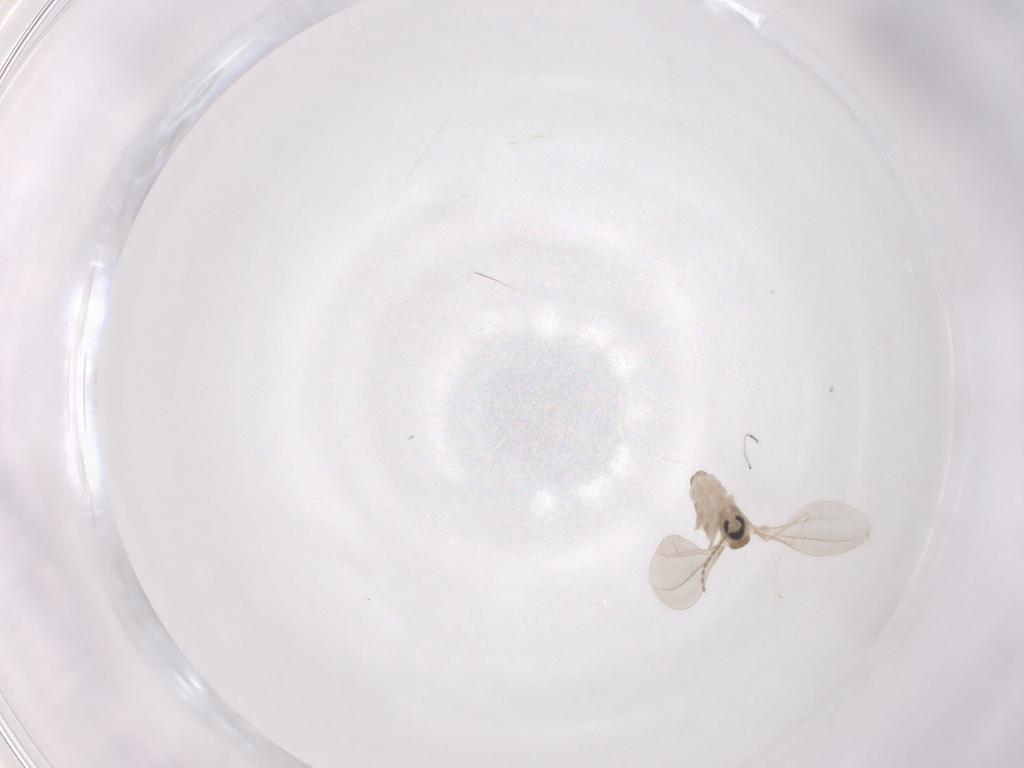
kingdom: Animalia
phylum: Arthropoda
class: Insecta
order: Diptera
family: Cecidomyiidae
